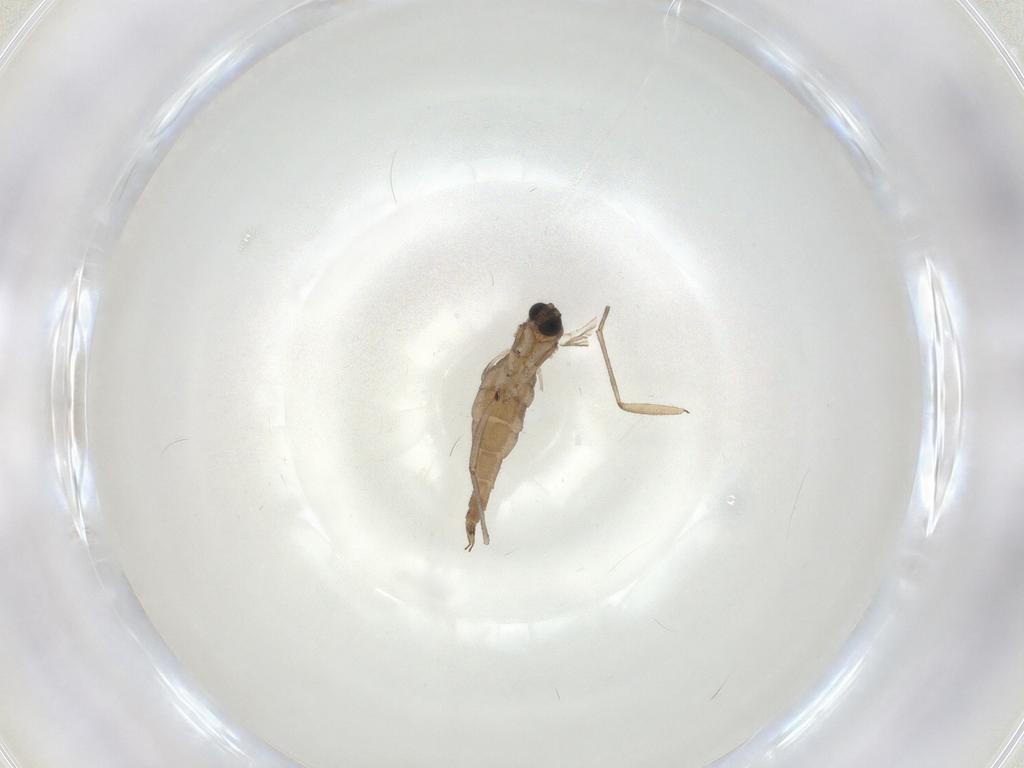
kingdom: Animalia
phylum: Arthropoda
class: Insecta
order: Diptera
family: Sciaridae
